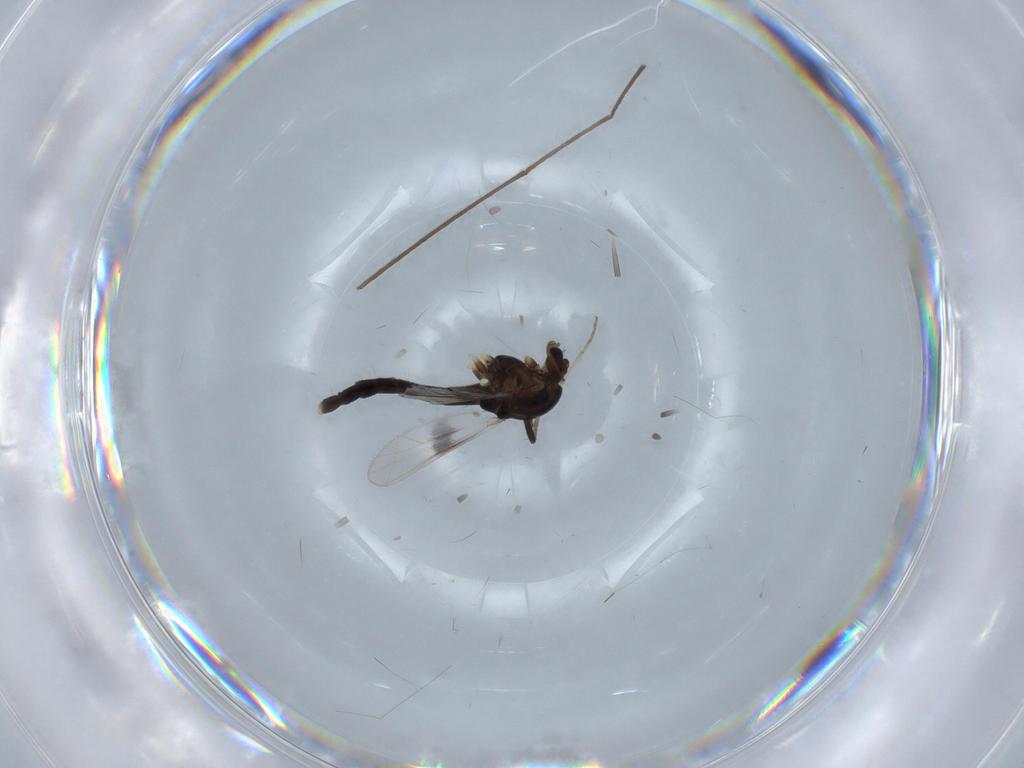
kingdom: Animalia
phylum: Arthropoda
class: Insecta
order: Diptera
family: Chironomidae
